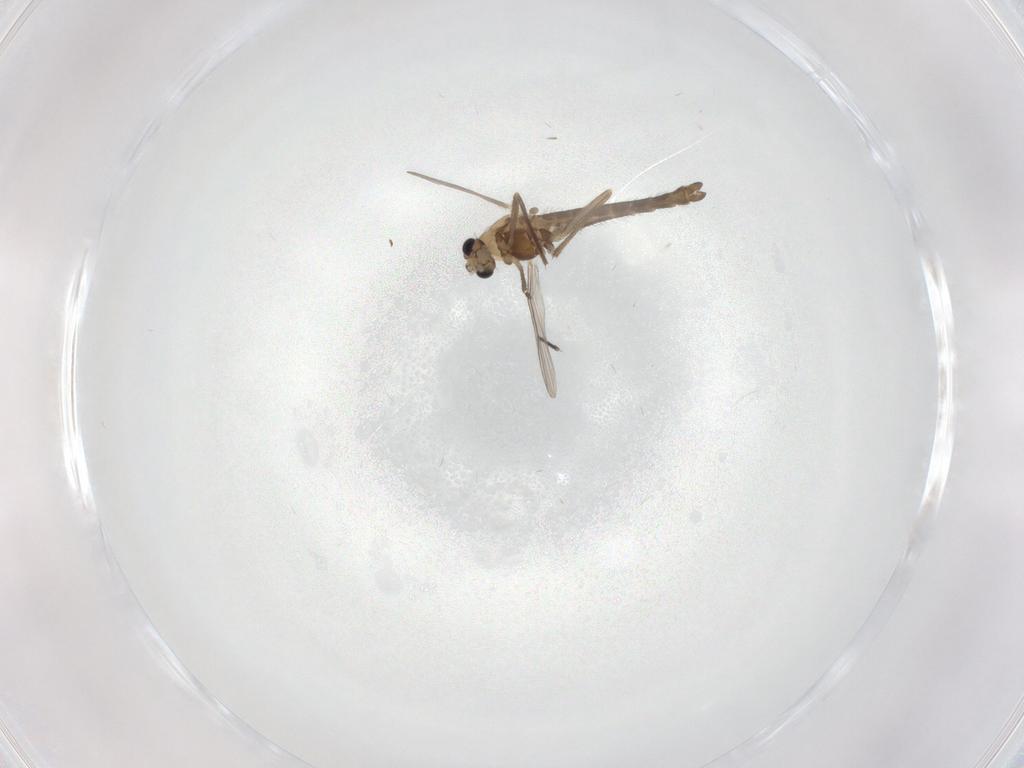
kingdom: Animalia
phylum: Arthropoda
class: Insecta
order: Diptera
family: Chironomidae
